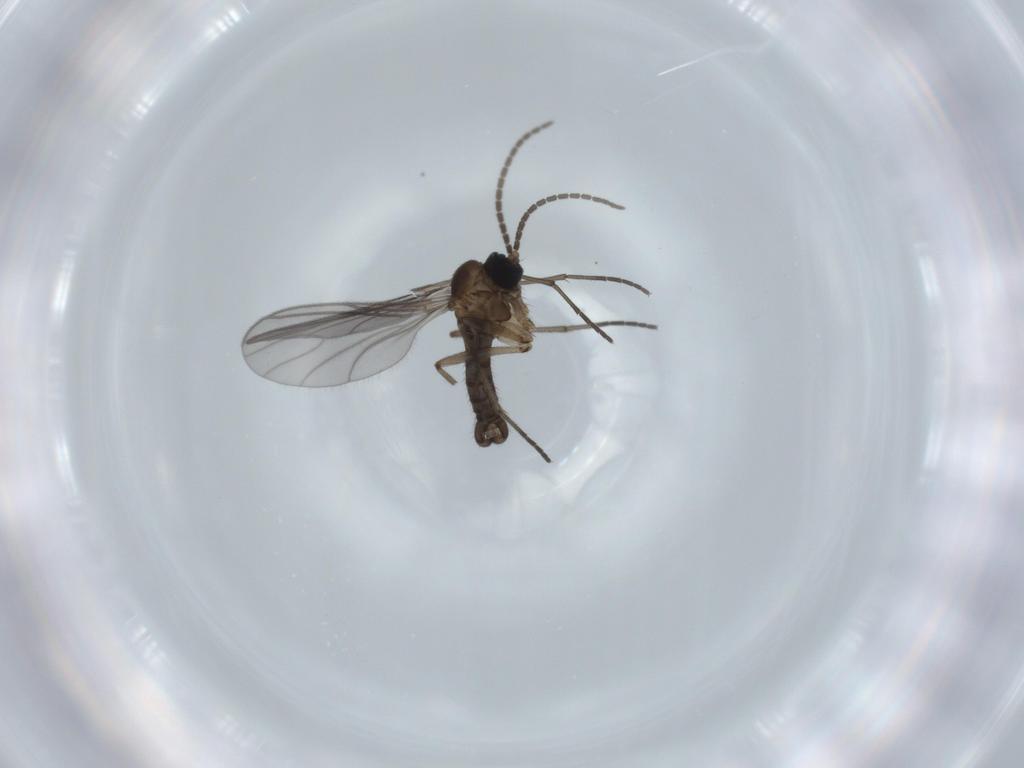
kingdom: Animalia
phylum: Arthropoda
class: Insecta
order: Diptera
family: Sciaridae
